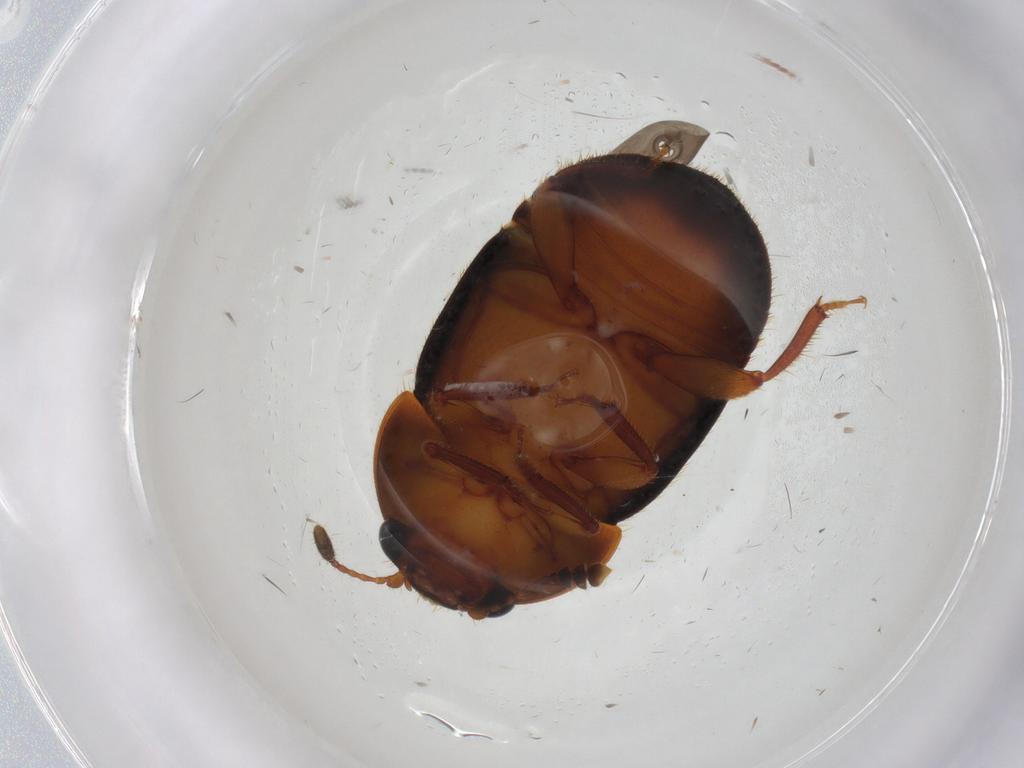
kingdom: Animalia
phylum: Arthropoda
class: Insecta
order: Coleoptera
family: Nitidulidae
